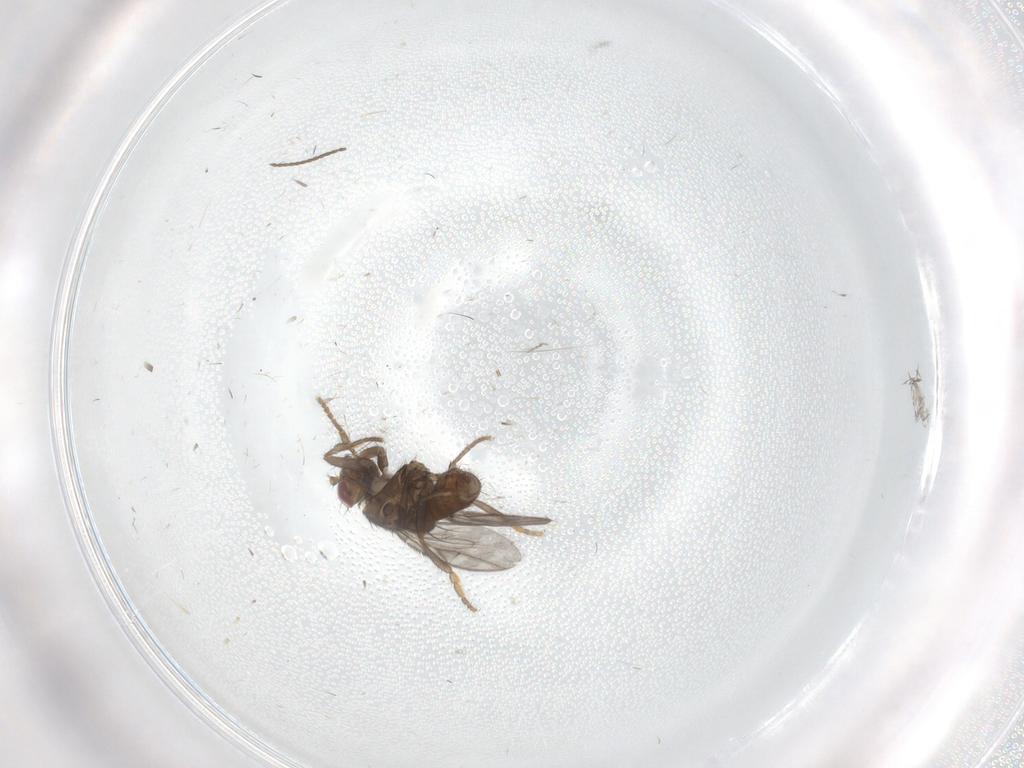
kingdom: Animalia
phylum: Arthropoda
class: Insecta
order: Diptera
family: Sphaeroceridae
